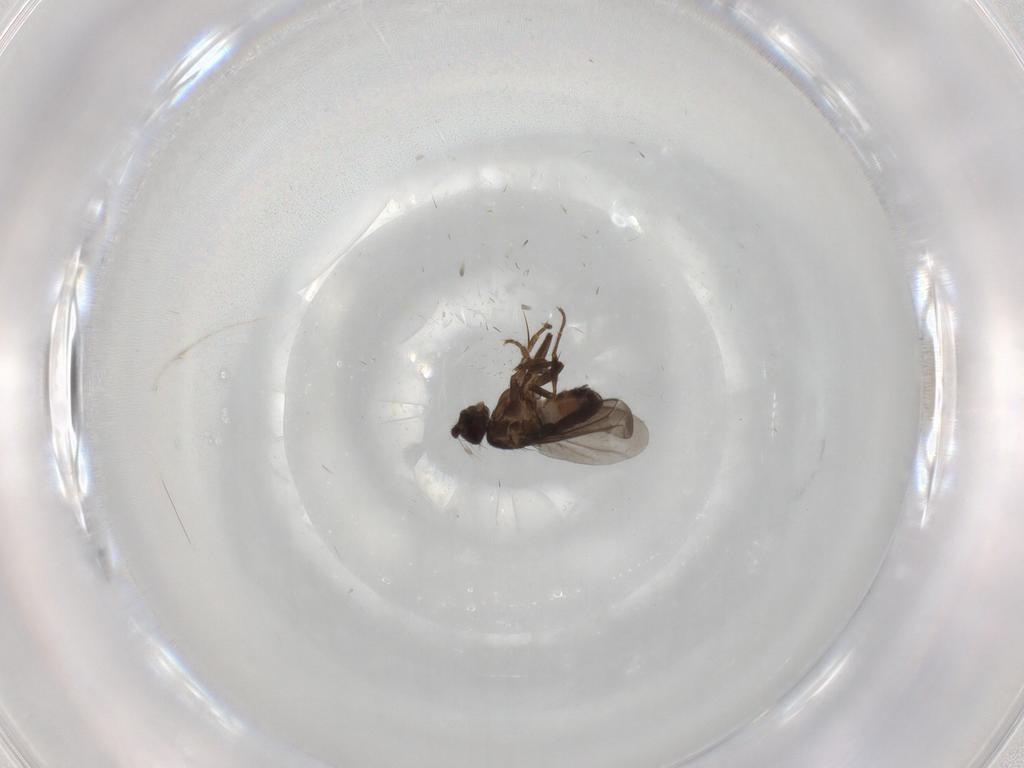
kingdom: Animalia
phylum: Arthropoda
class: Insecta
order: Diptera
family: Sphaeroceridae
